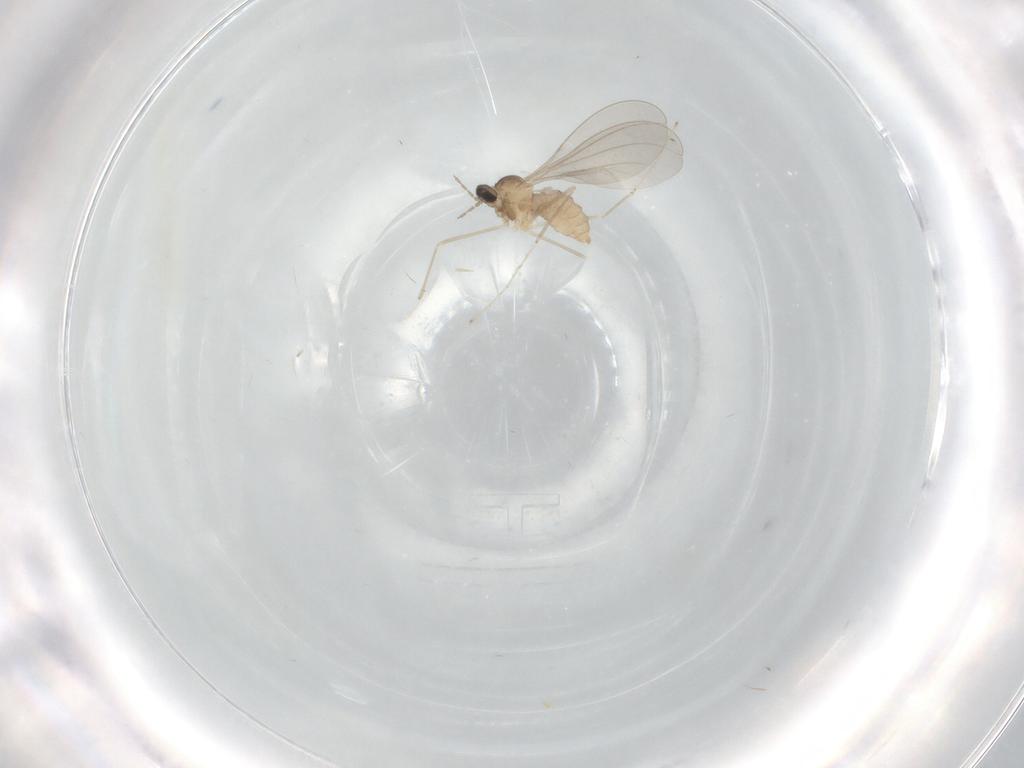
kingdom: Animalia
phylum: Arthropoda
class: Insecta
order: Diptera
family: Cecidomyiidae
